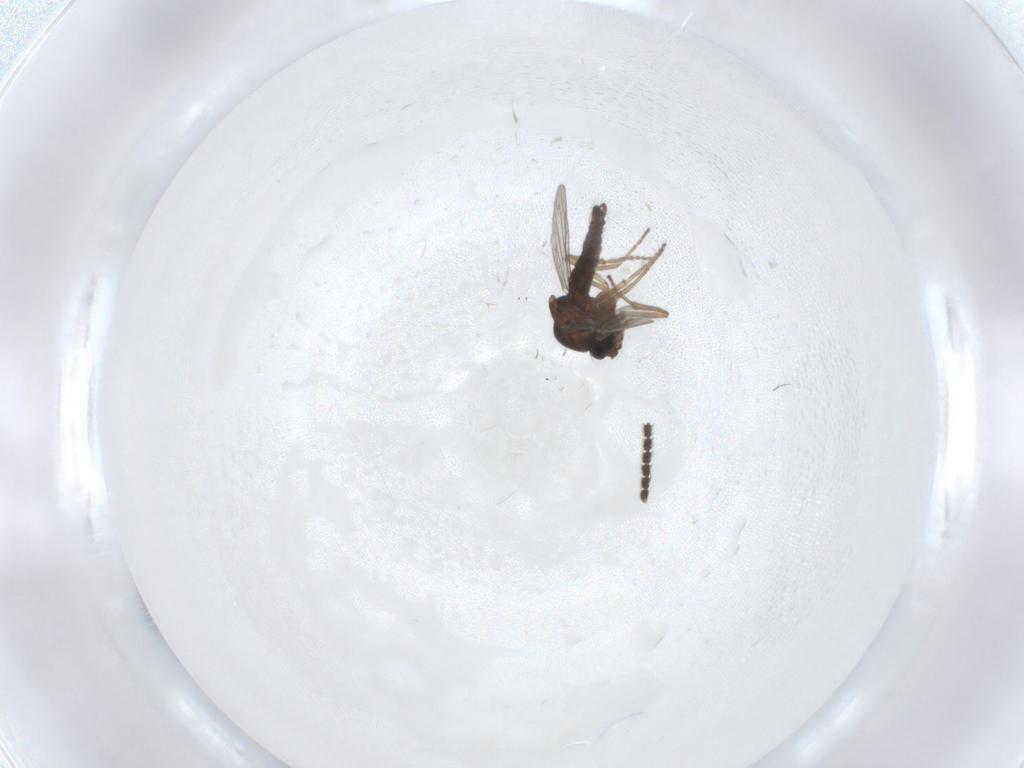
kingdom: Animalia
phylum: Arthropoda
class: Insecta
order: Diptera
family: Ceratopogonidae
